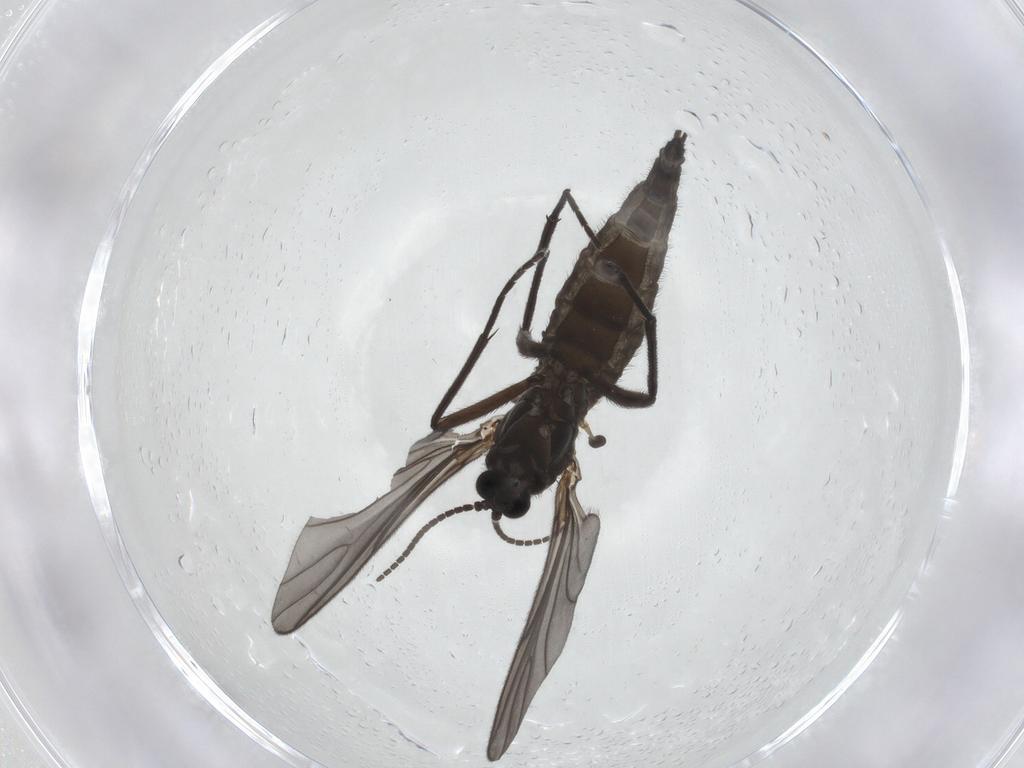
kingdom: Animalia
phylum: Arthropoda
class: Insecta
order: Diptera
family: Sciaridae
